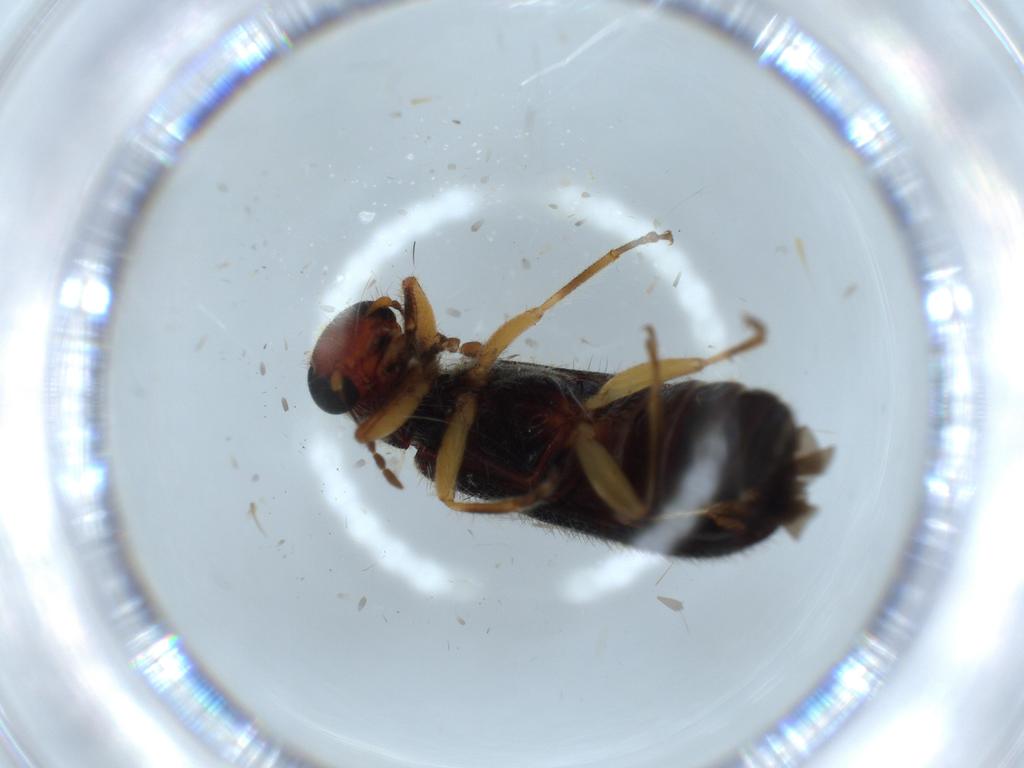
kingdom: Animalia
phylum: Arthropoda
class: Insecta
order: Coleoptera
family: Cleridae
